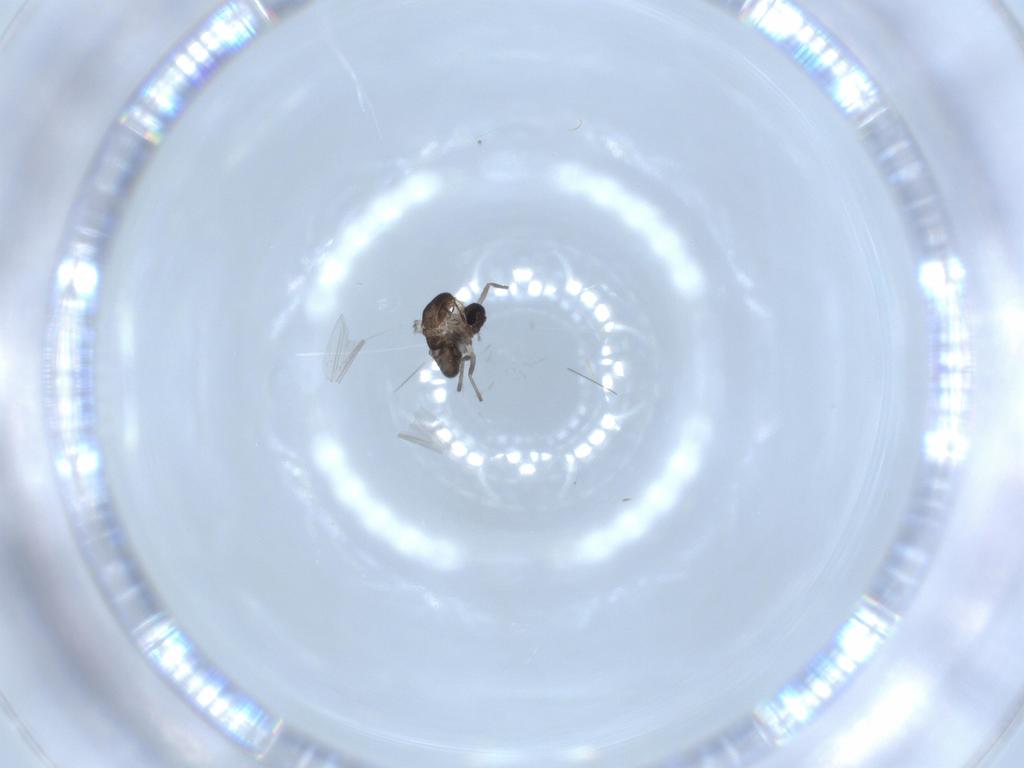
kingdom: Animalia
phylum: Arthropoda
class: Insecta
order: Diptera
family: Chironomidae
